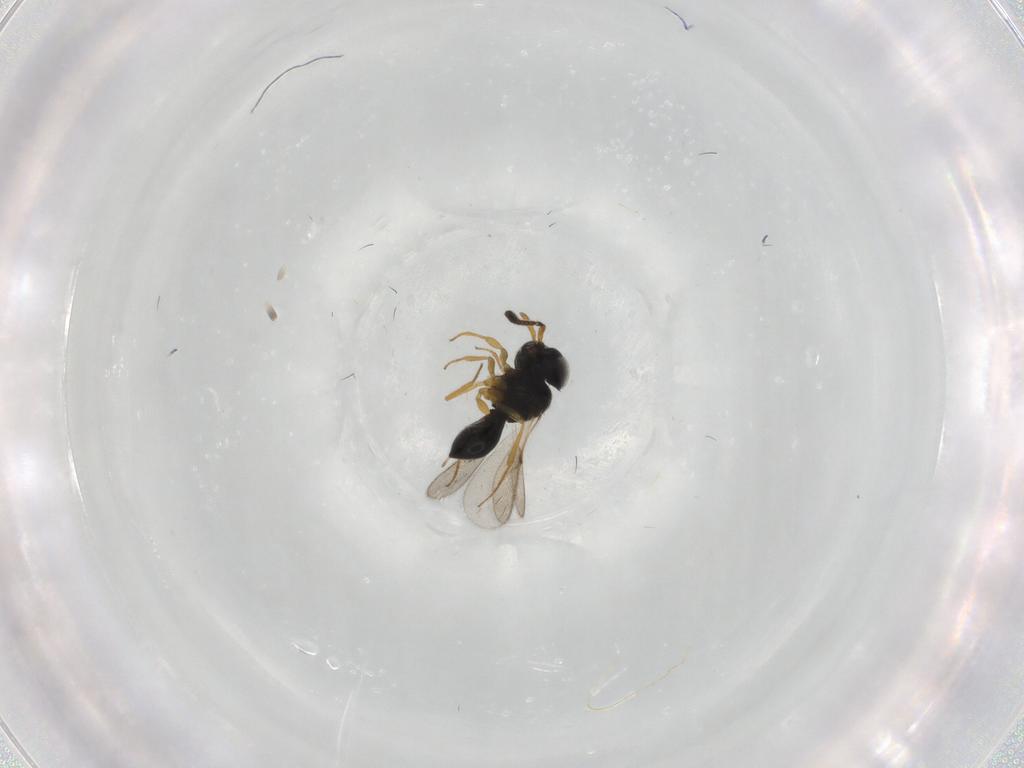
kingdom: Animalia
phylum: Arthropoda
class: Insecta
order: Hymenoptera
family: Scelionidae
